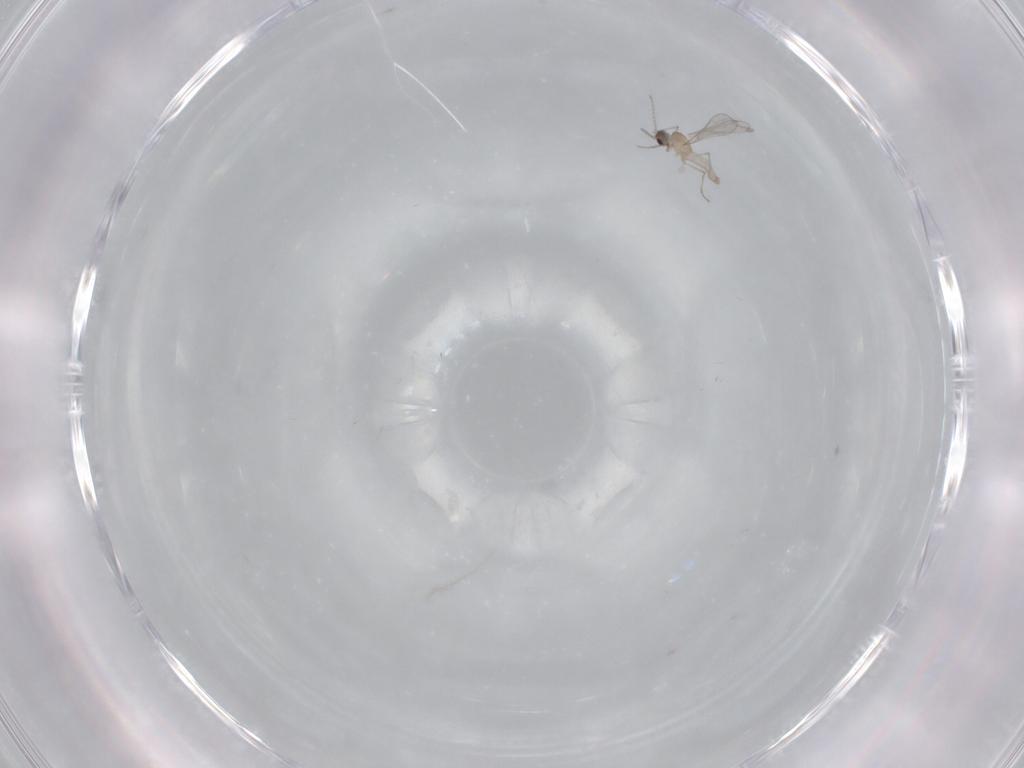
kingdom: Animalia
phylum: Arthropoda
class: Insecta
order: Diptera
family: Cecidomyiidae
